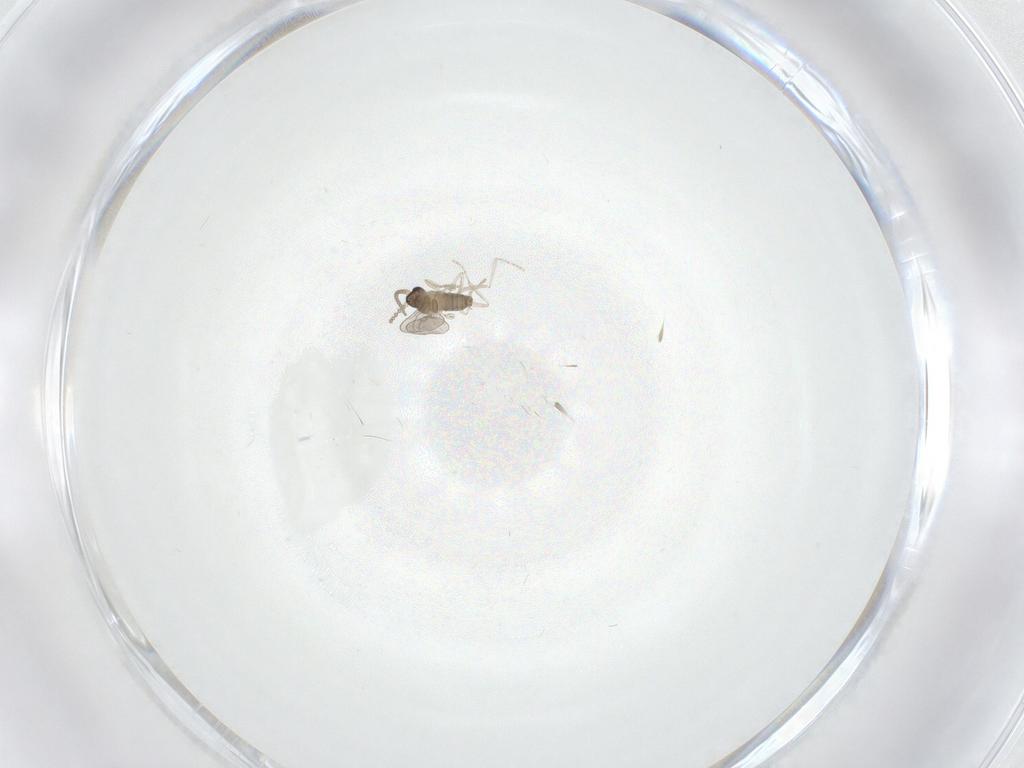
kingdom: Animalia
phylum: Arthropoda
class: Insecta
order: Diptera
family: Cecidomyiidae
